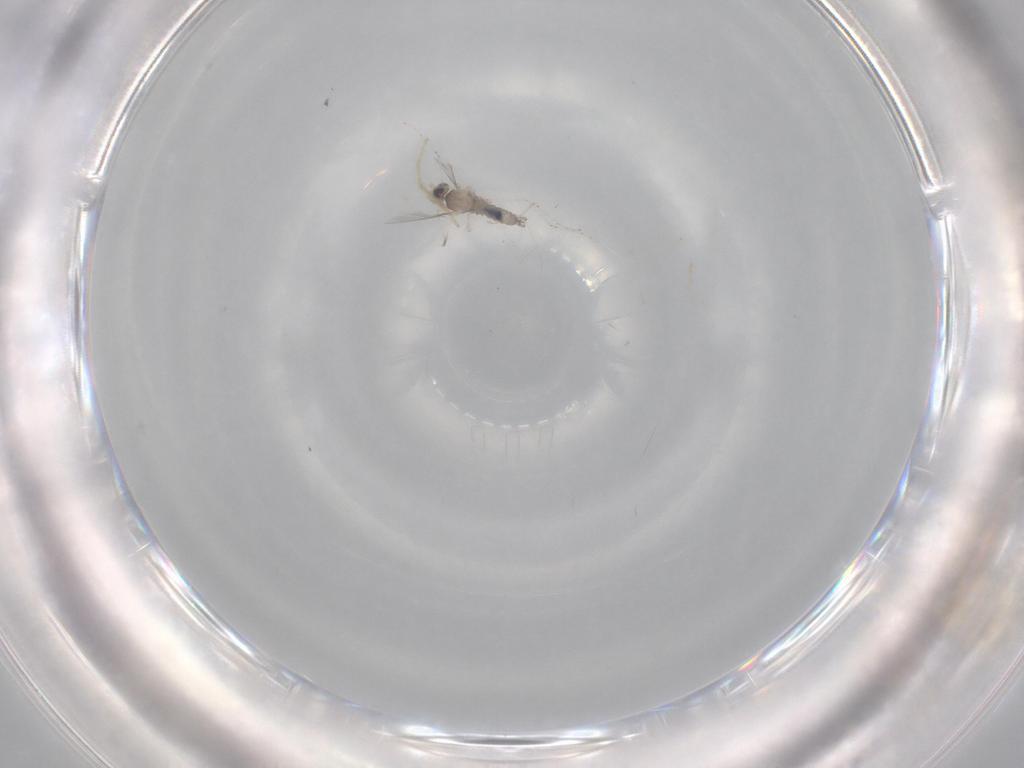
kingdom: Animalia
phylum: Arthropoda
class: Insecta
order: Diptera
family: Cecidomyiidae
